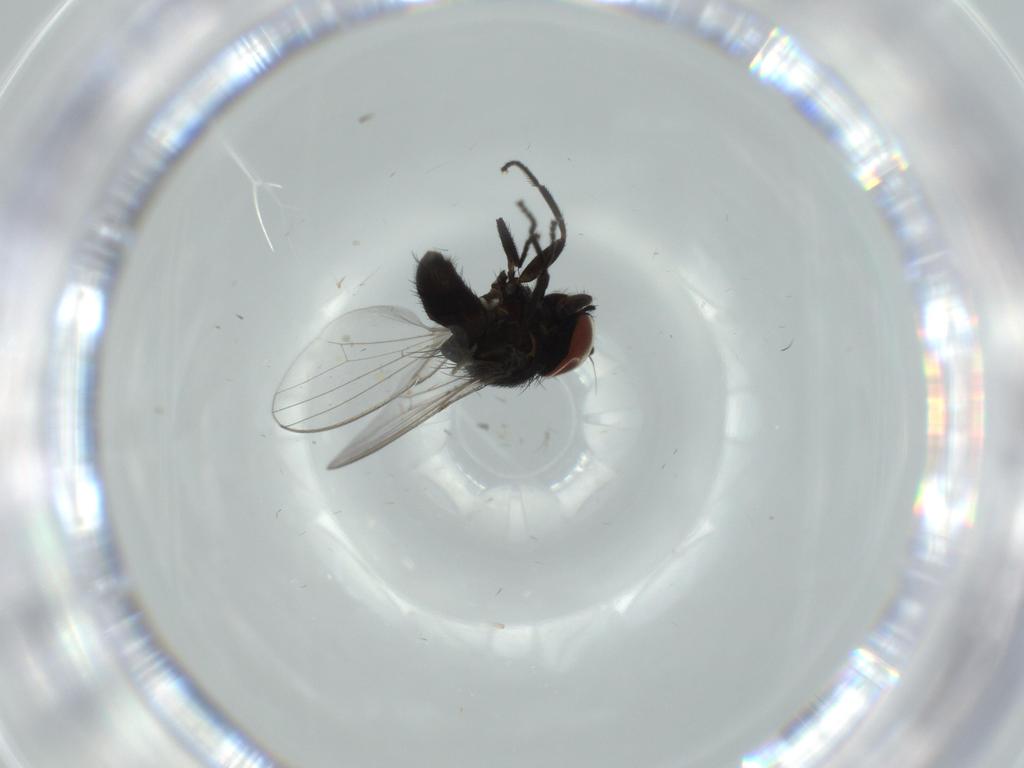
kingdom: Animalia
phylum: Arthropoda
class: Insecta
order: Diptera
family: Milichiidae
